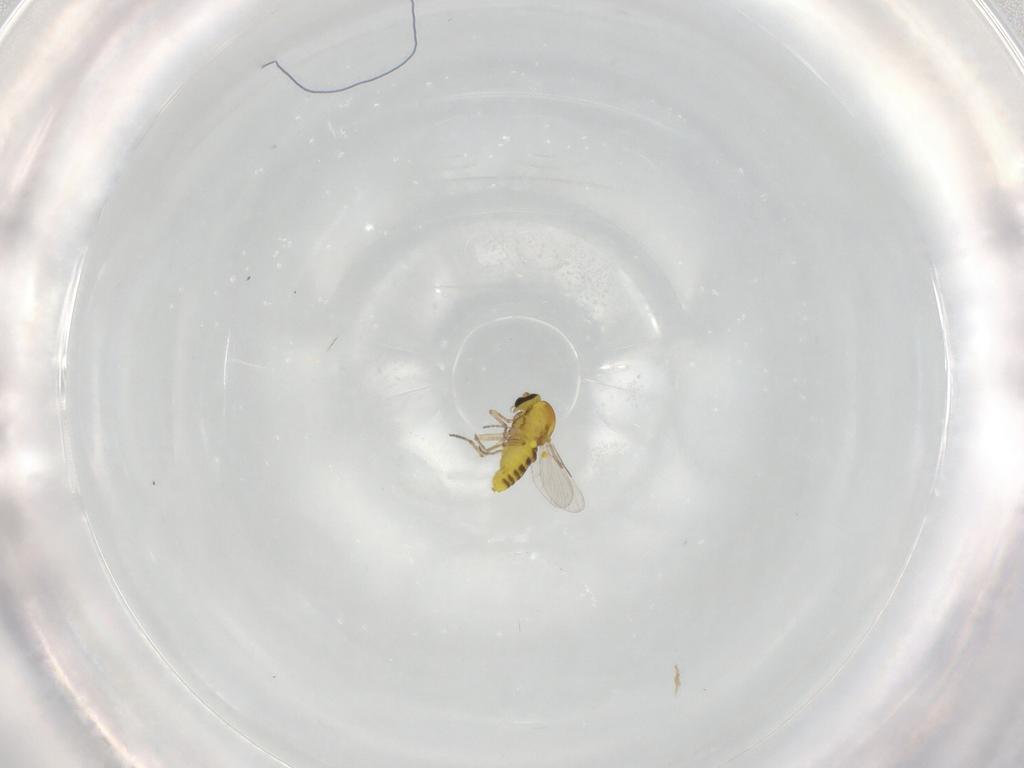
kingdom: Animalia
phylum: Arthropoda
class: Insecta
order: Diptera
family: Ceratopogonidae
